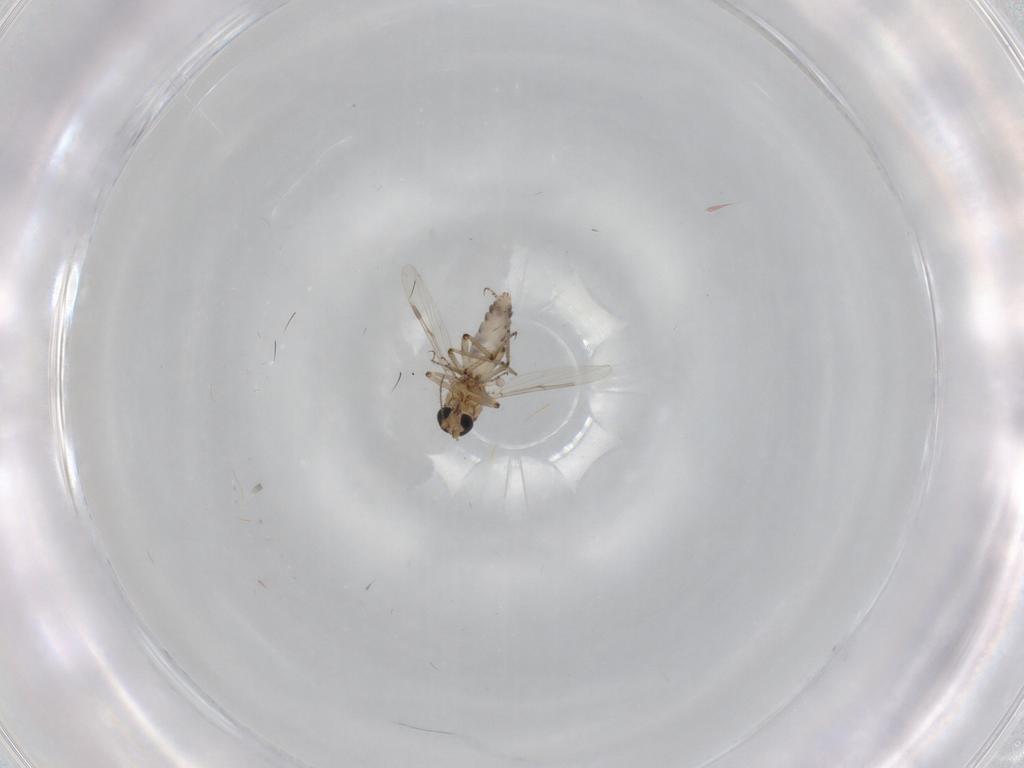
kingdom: Animalia
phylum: Arthropoda
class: Insecta
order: Diptera
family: Ceratopogonidae
